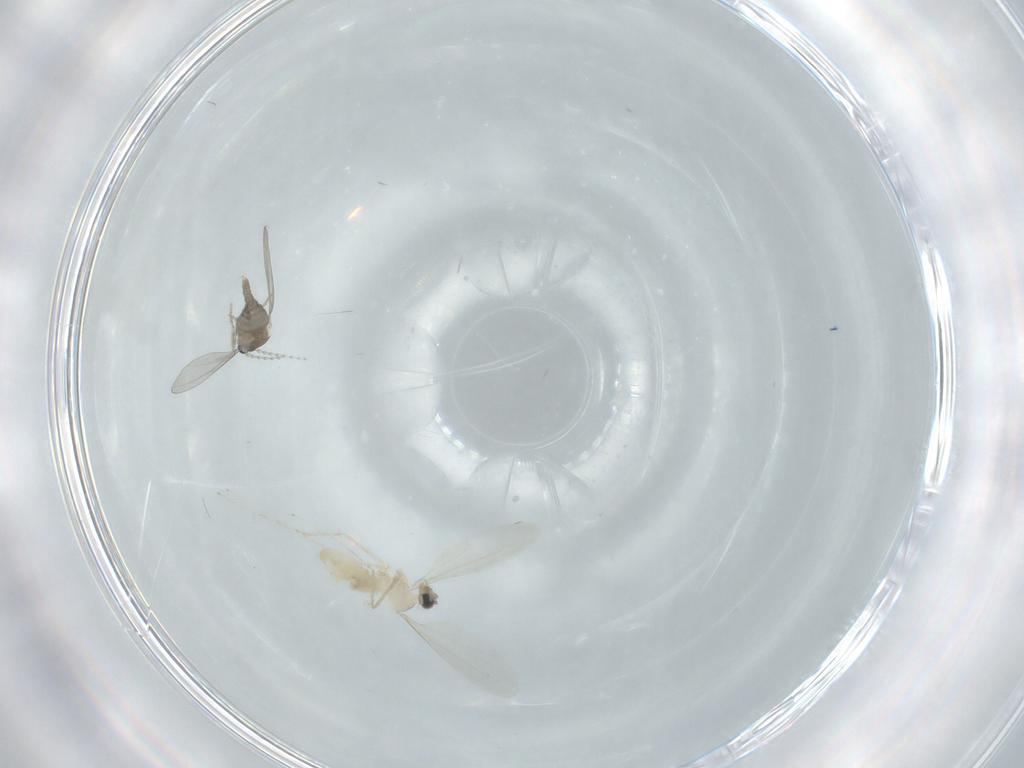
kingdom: Animalia
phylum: Arthropoda
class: Insecta
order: Diptera
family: Cecidomyiidae
